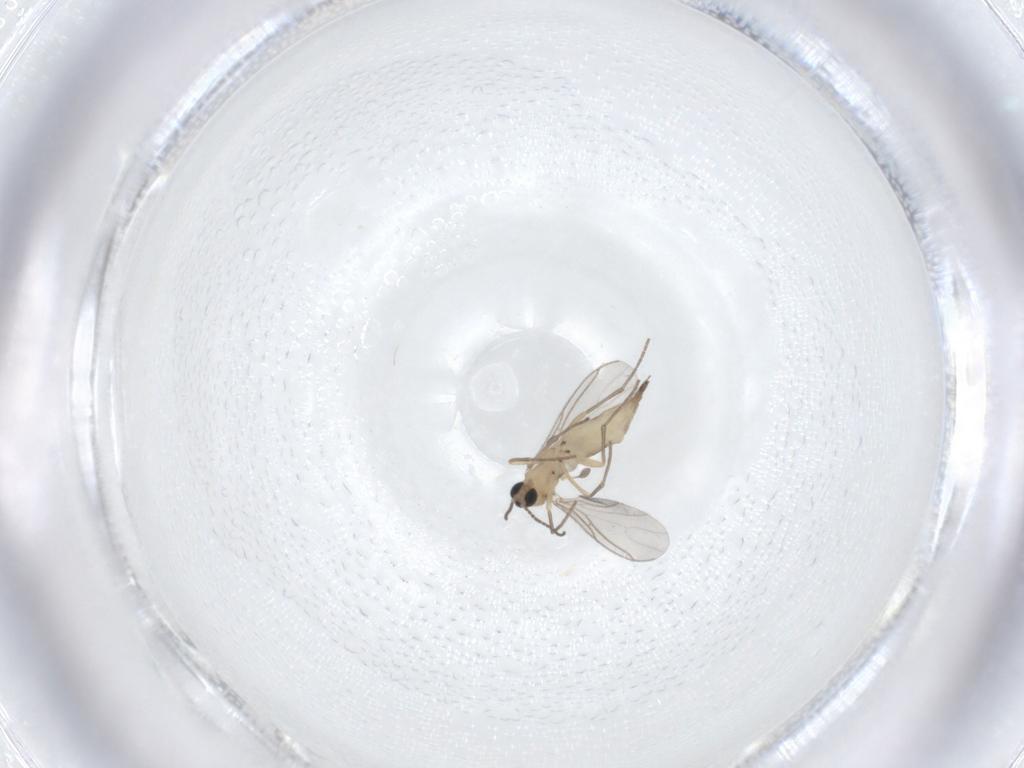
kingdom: Animalia
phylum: Arthropoda
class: Insecta
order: Diptera
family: Sciaridae
